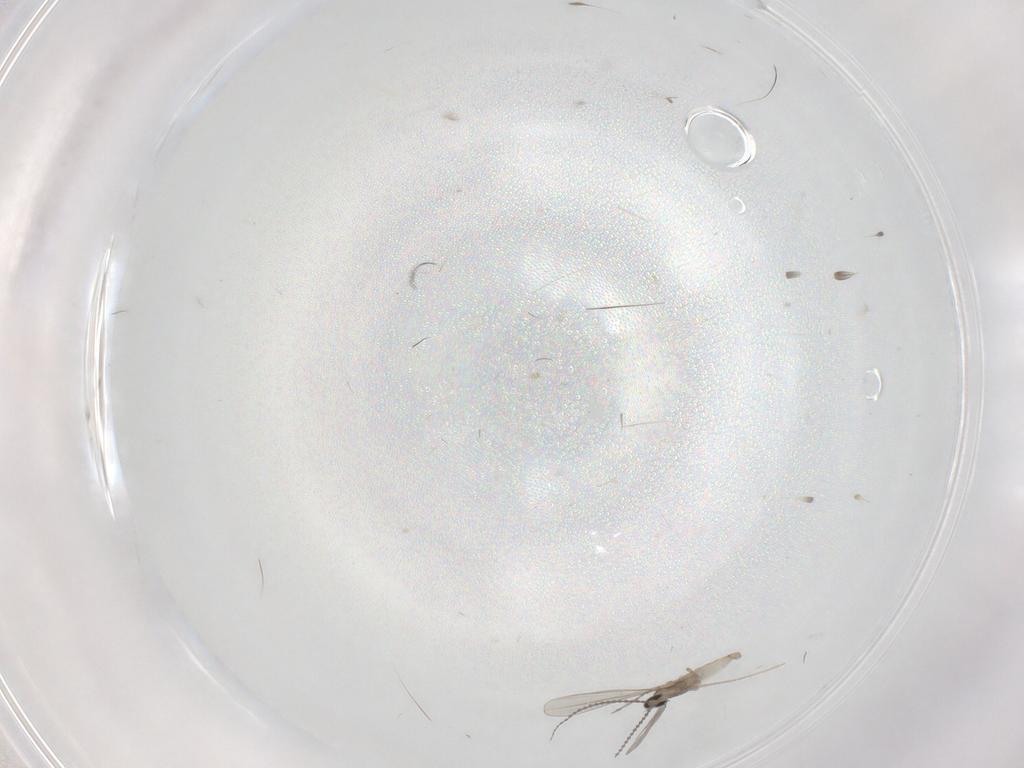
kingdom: Animalia
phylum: Arthropoda
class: Insecta
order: Diptera
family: Cecidomyiidae
